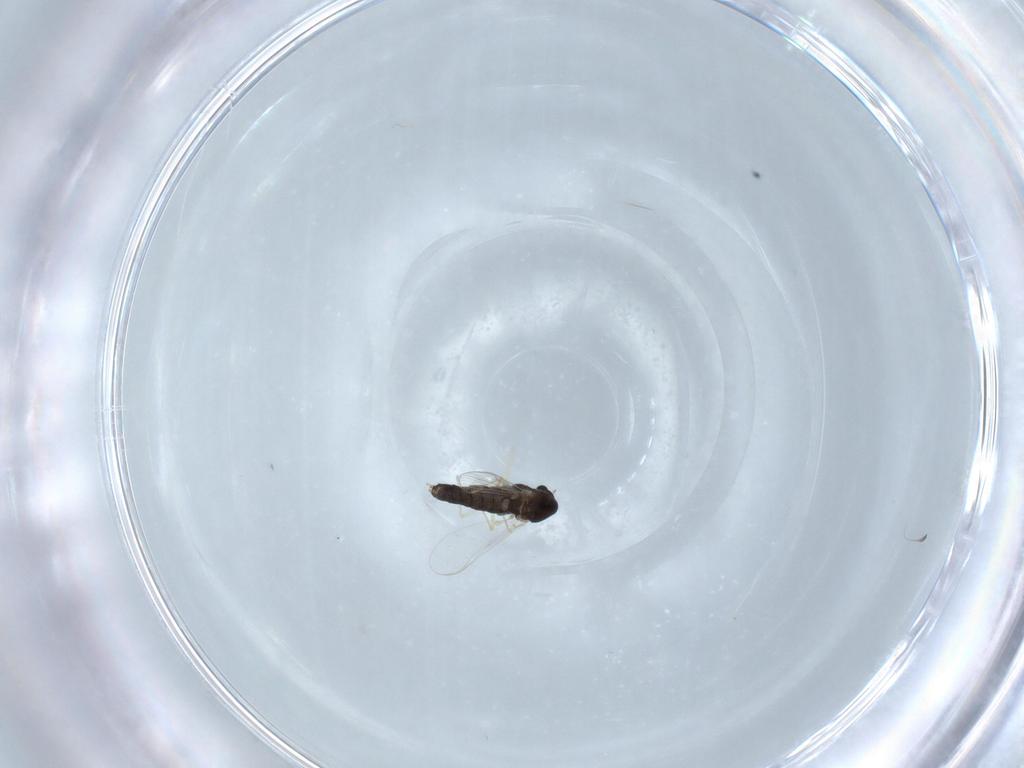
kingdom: Animalia
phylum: Arthropoda
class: Insecta
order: Diptera
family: Chironomidae
